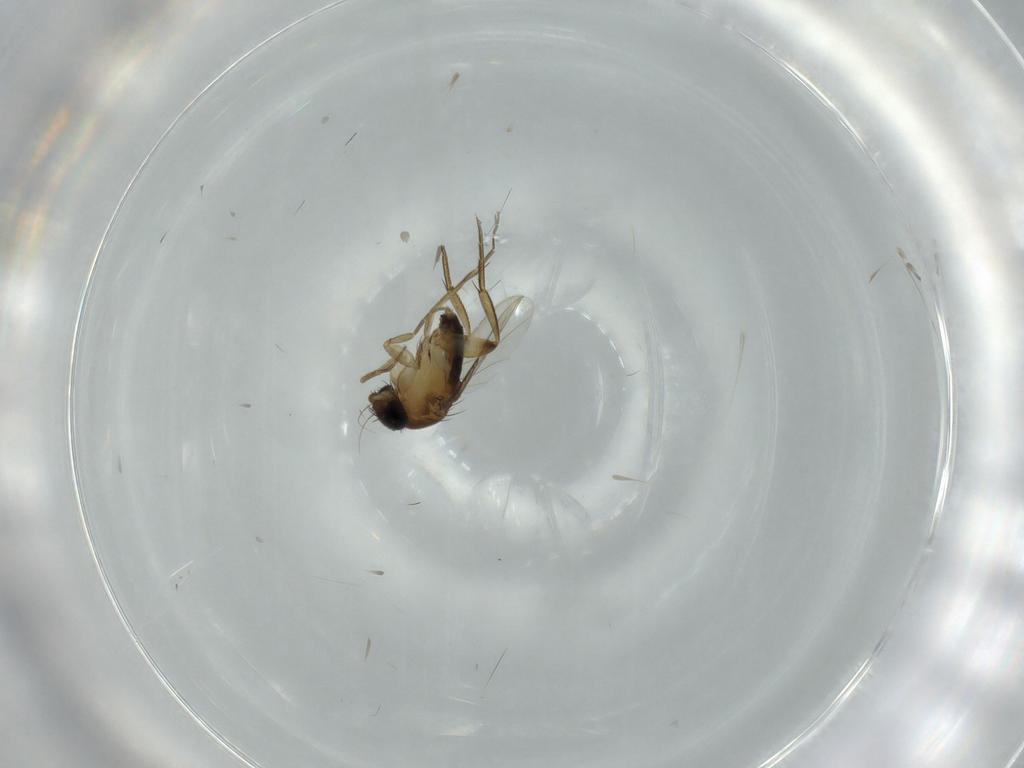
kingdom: Animalia
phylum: Arthropoda
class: Insecta
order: Diptera
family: Phoridae
